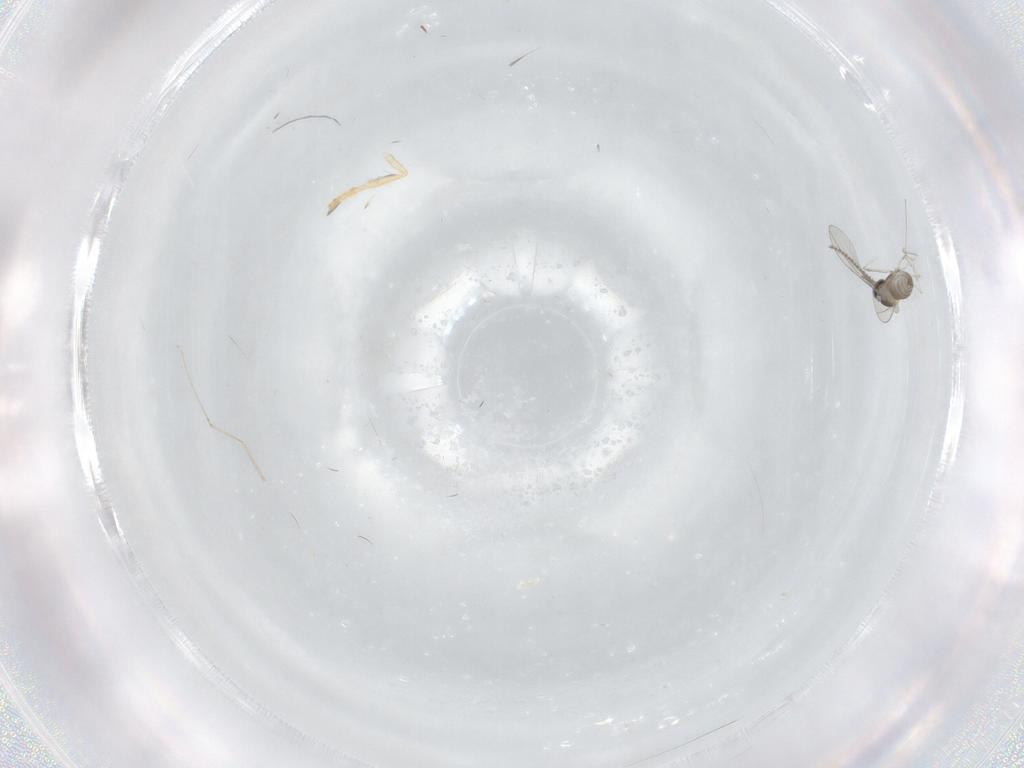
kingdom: Animalia
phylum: Arthropoda
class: Insecta
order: Diptera
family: Cecidomyiidae
